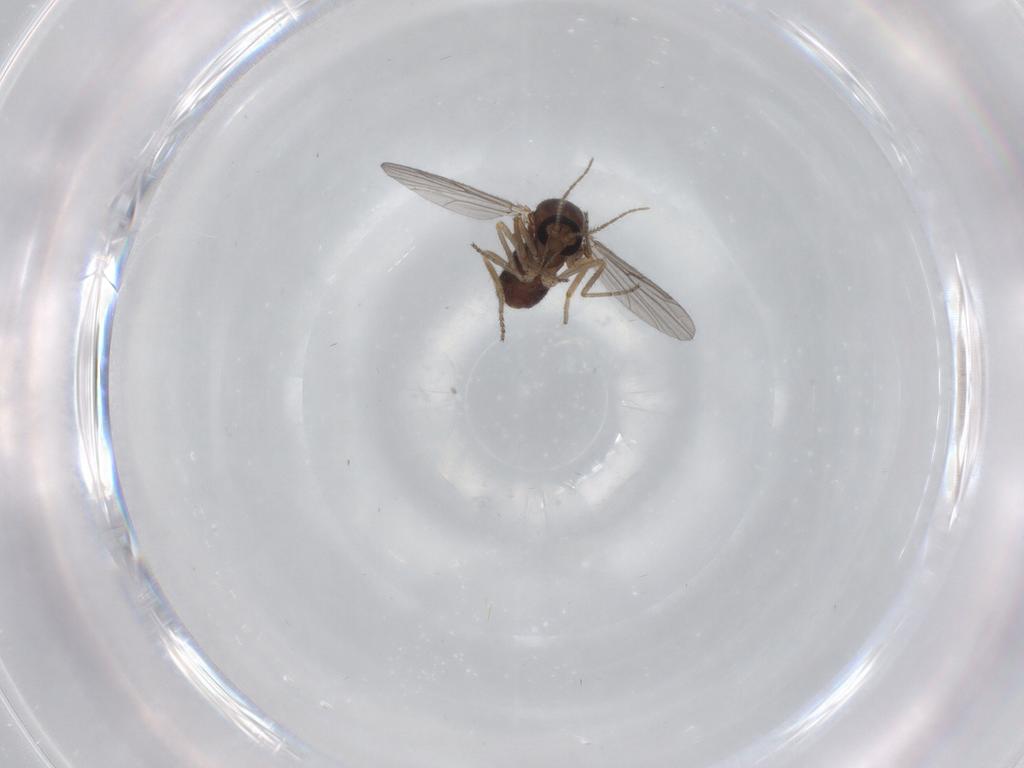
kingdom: Animalia
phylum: Arthropoda
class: Insecta
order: Diptera
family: Ceratopogonidae
